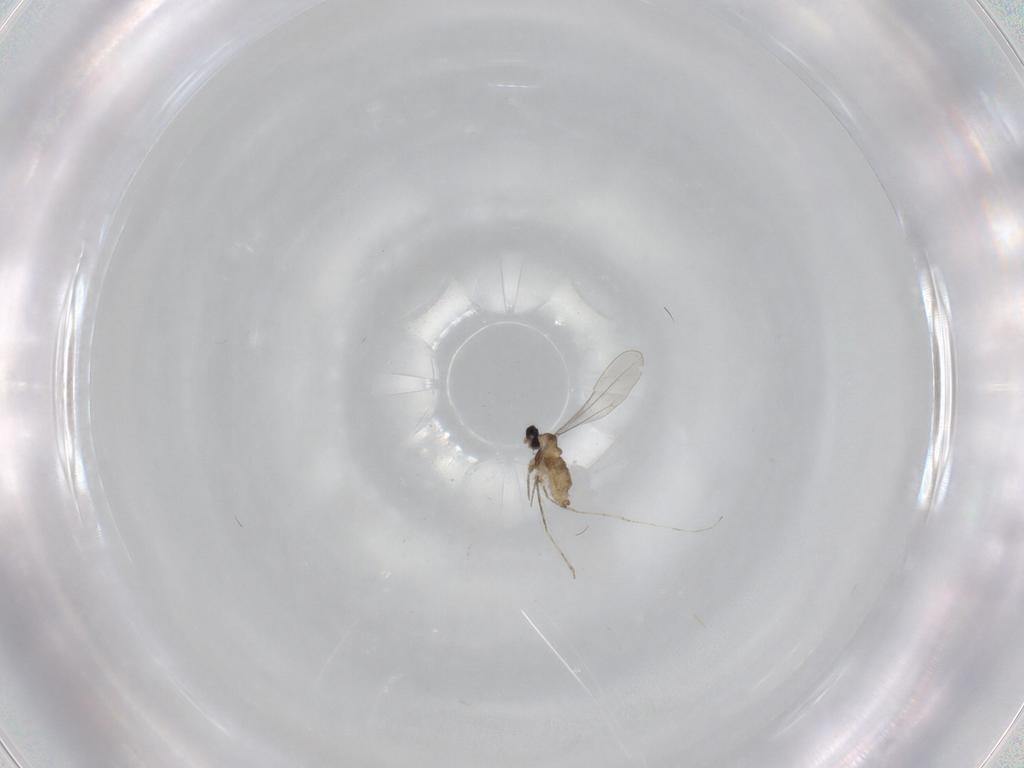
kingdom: Animalia
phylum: Arthropoda
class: Insecta
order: Diptera
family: Cecidomyiidae
